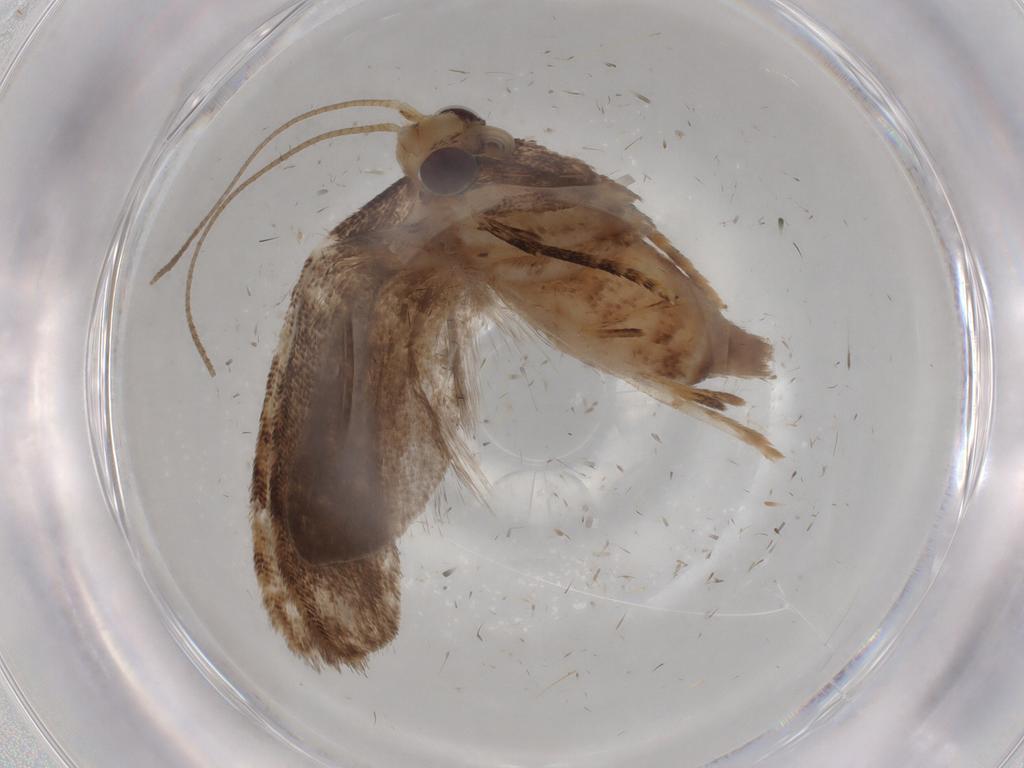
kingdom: Animalia
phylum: Arthropoda
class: Insecta
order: Lepidoptera
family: Carposinidae
